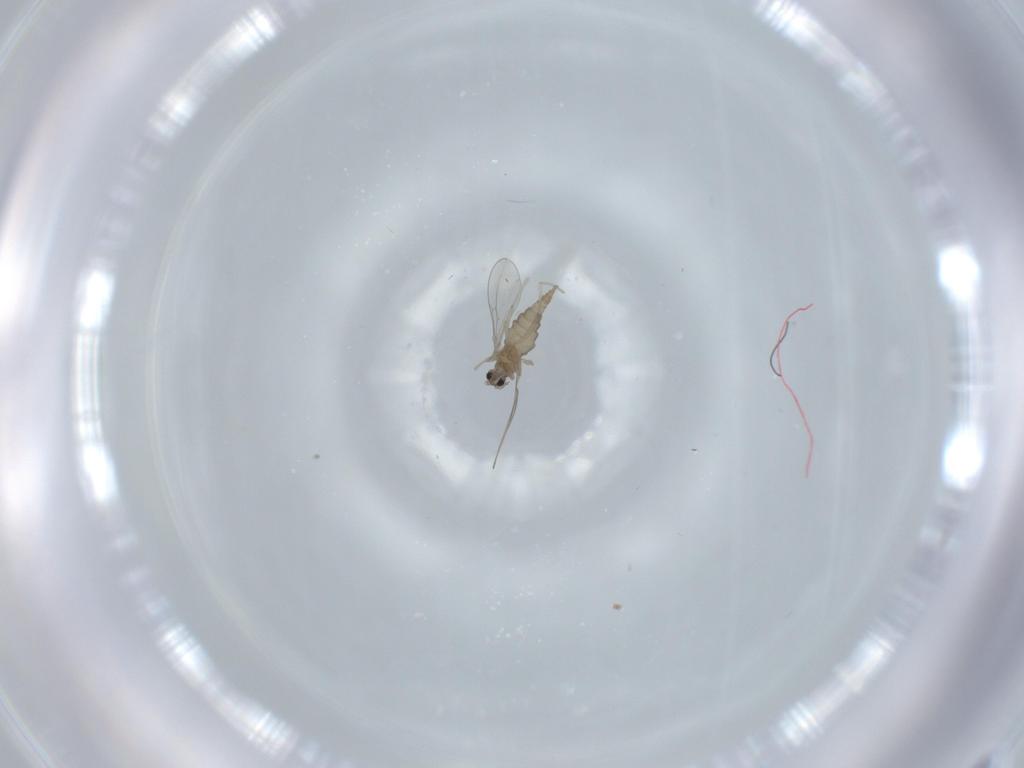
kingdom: Animalia
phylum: Arthropoda
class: Insecta
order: Diptera
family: Cecidomyiidae
